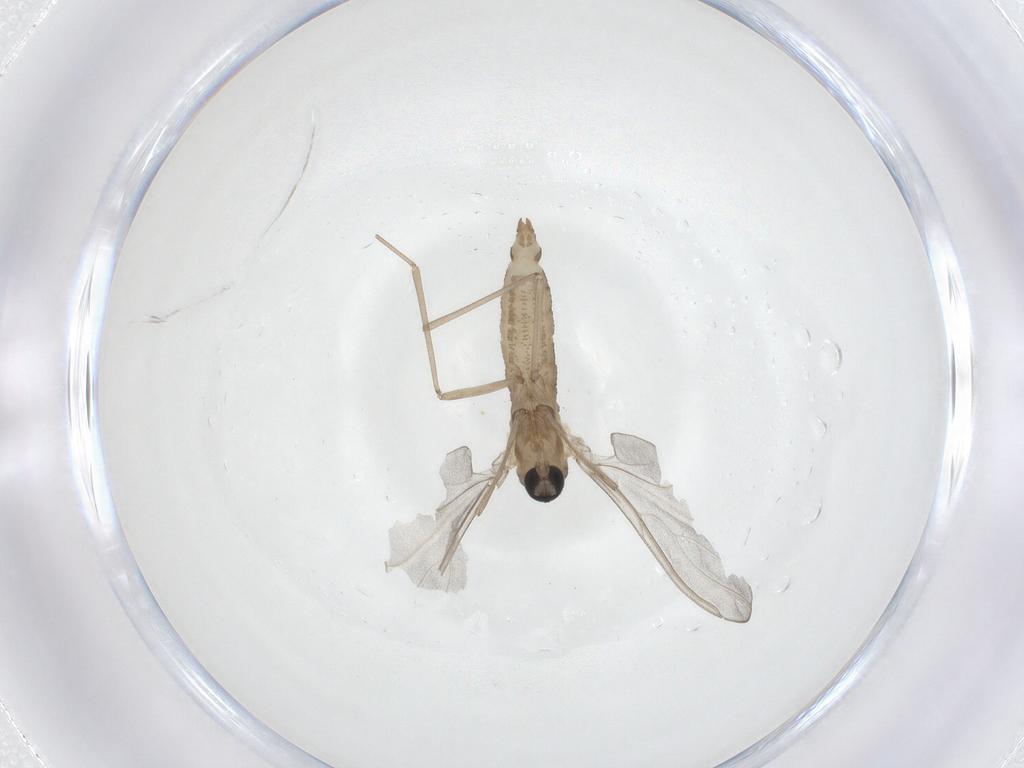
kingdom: Animalia
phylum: Arthropoda
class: Insecta
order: Diptera
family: Cecidomyiidae
